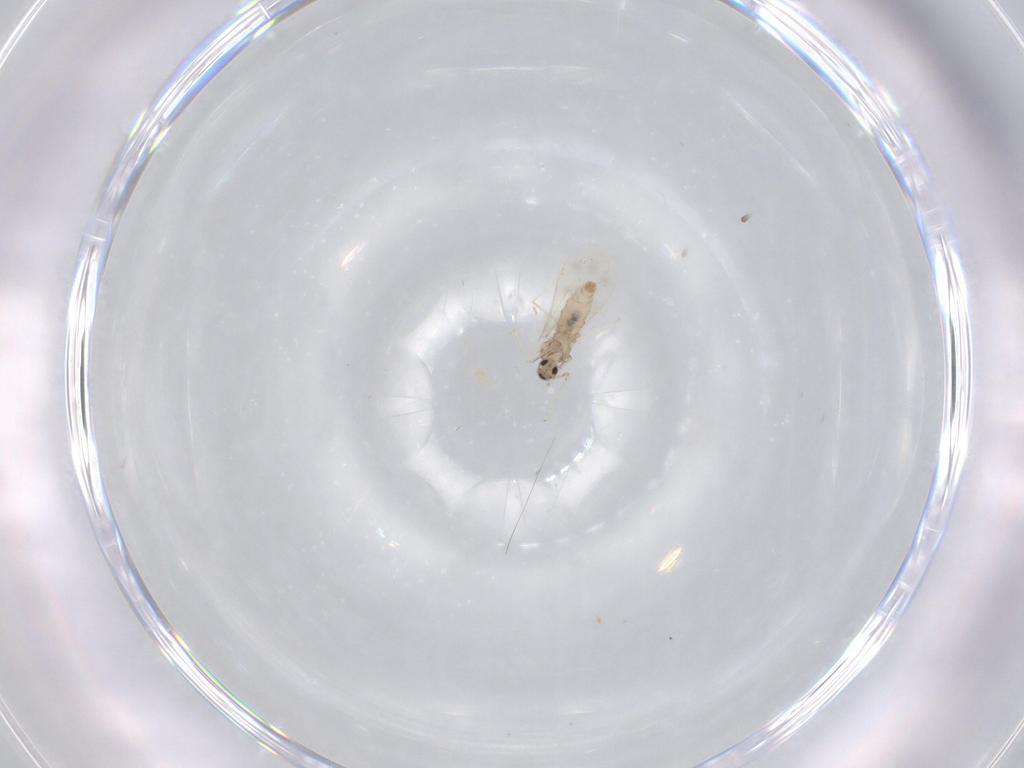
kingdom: Animalia
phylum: Arthropoda
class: Insecta
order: Diptera
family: Cecidomyiidae
